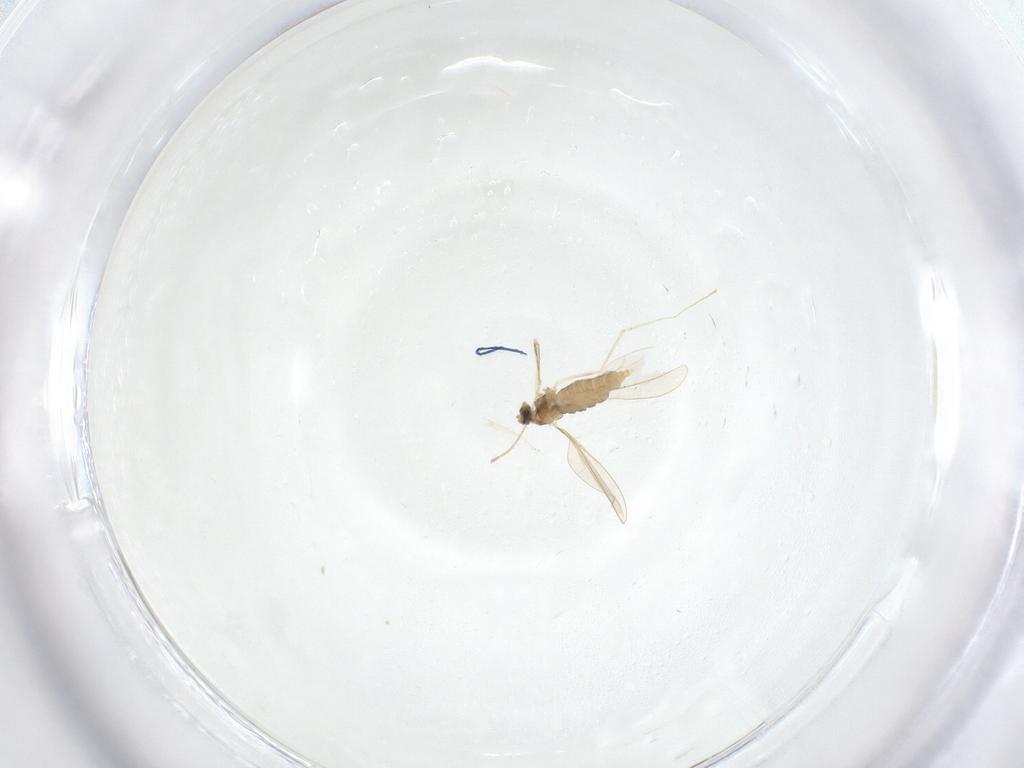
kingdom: Animalia
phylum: Arthropoda
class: Insecta
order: Diptera
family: Cecidomyiidae
